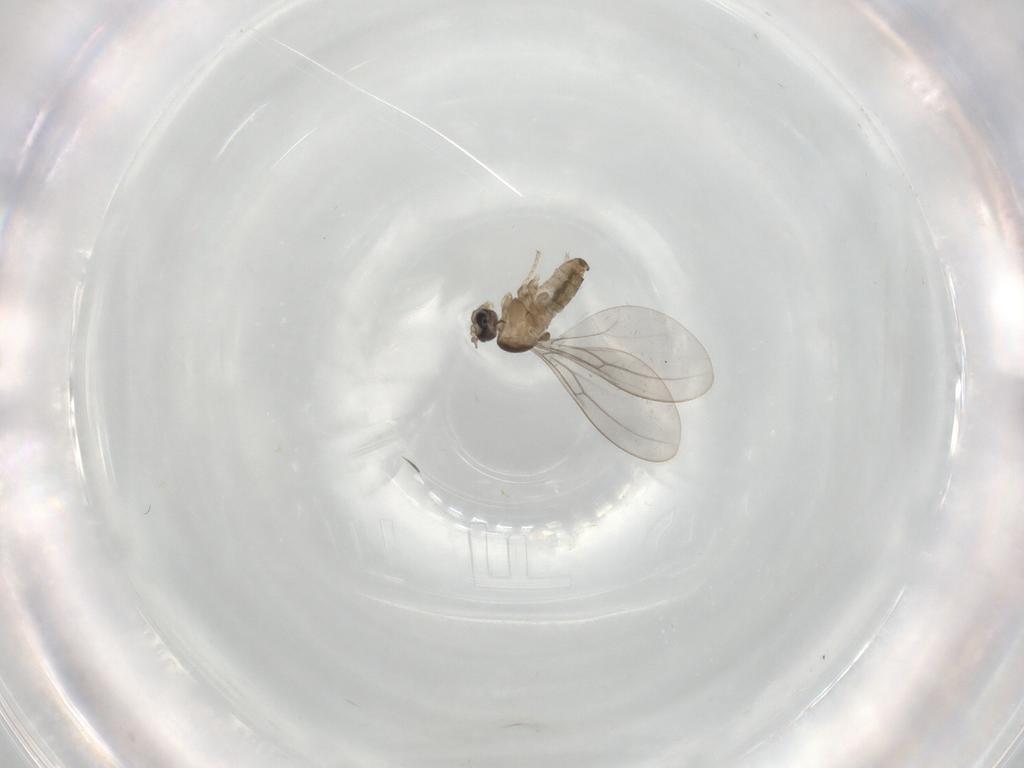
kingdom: Animalia
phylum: Arthropoda
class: Insecta
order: Diptera
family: Cecidomyiidae
